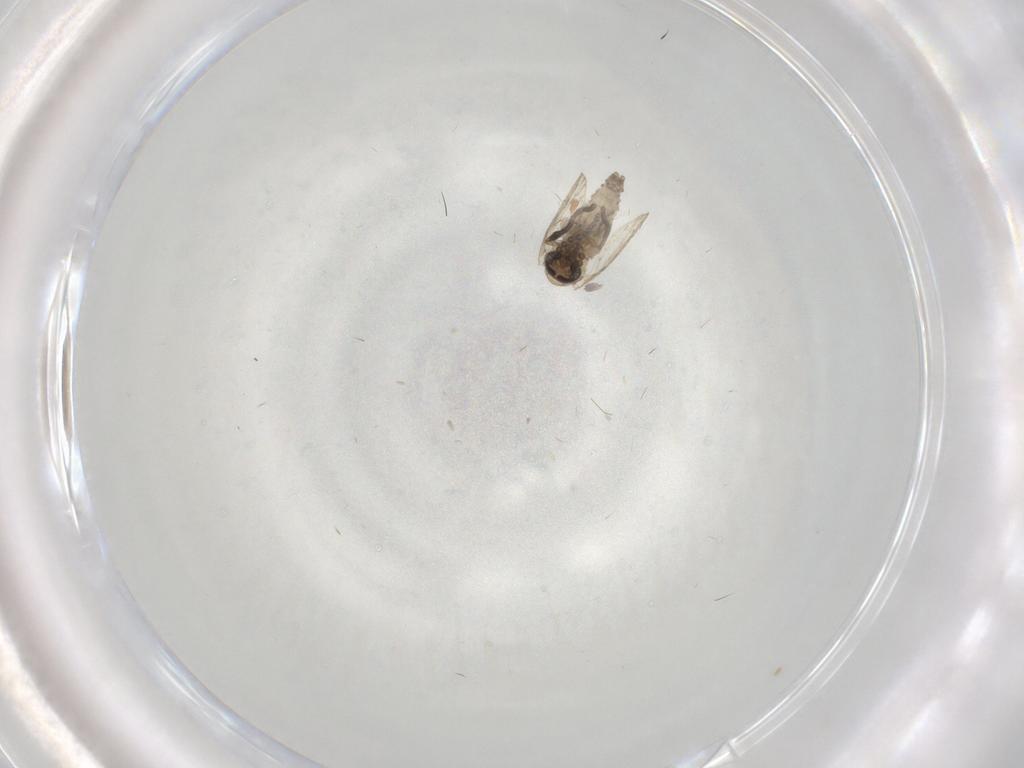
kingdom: Animalia
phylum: Arthropoda
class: Insecta
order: Diptera
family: Psychodidae
